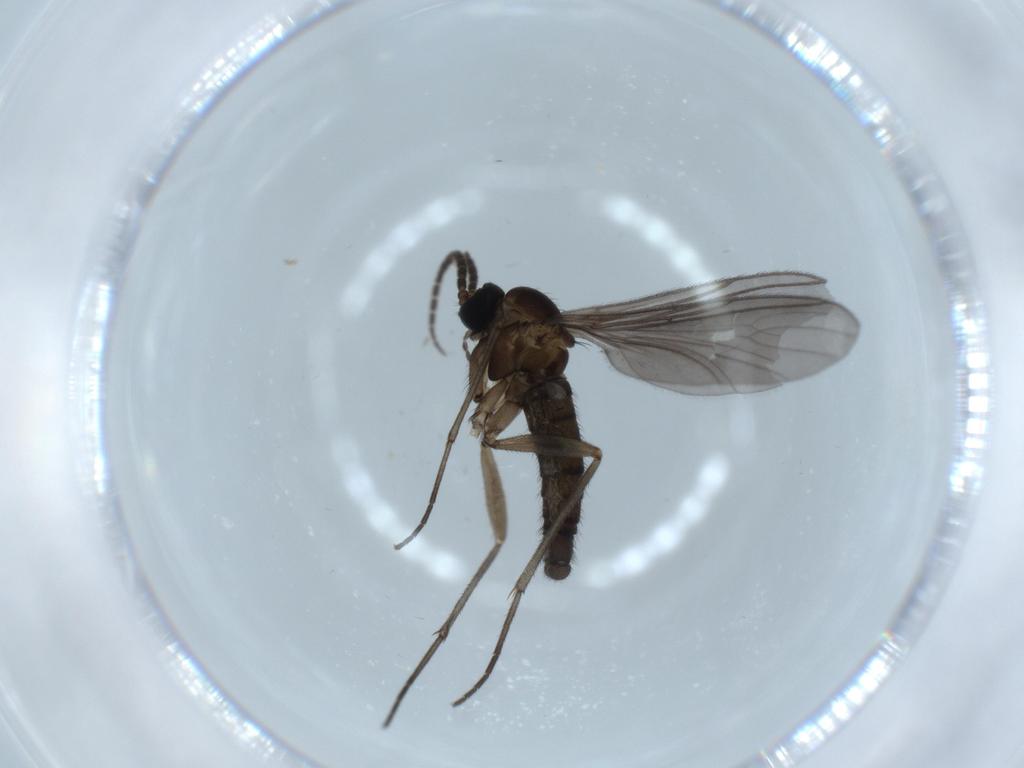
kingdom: Animalia
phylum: Arthropoda
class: Insecta
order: Diptera
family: Sciaridae
